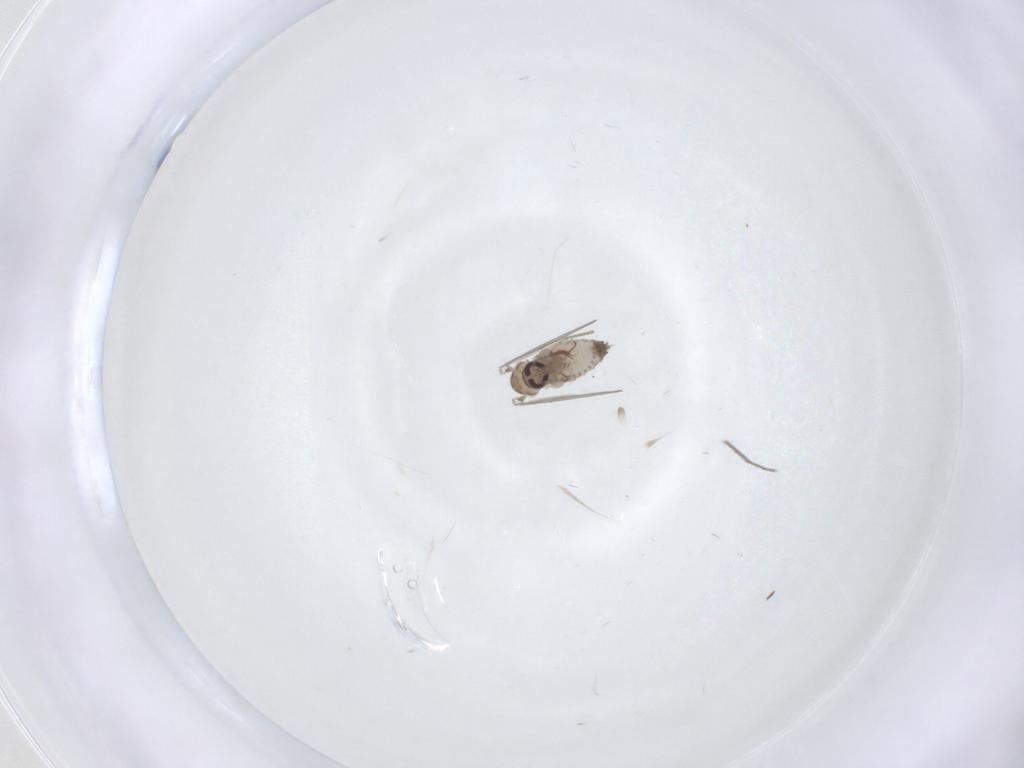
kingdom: Animalia
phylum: Arthropoda
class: Insecta
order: Diptera
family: Psychodidae
